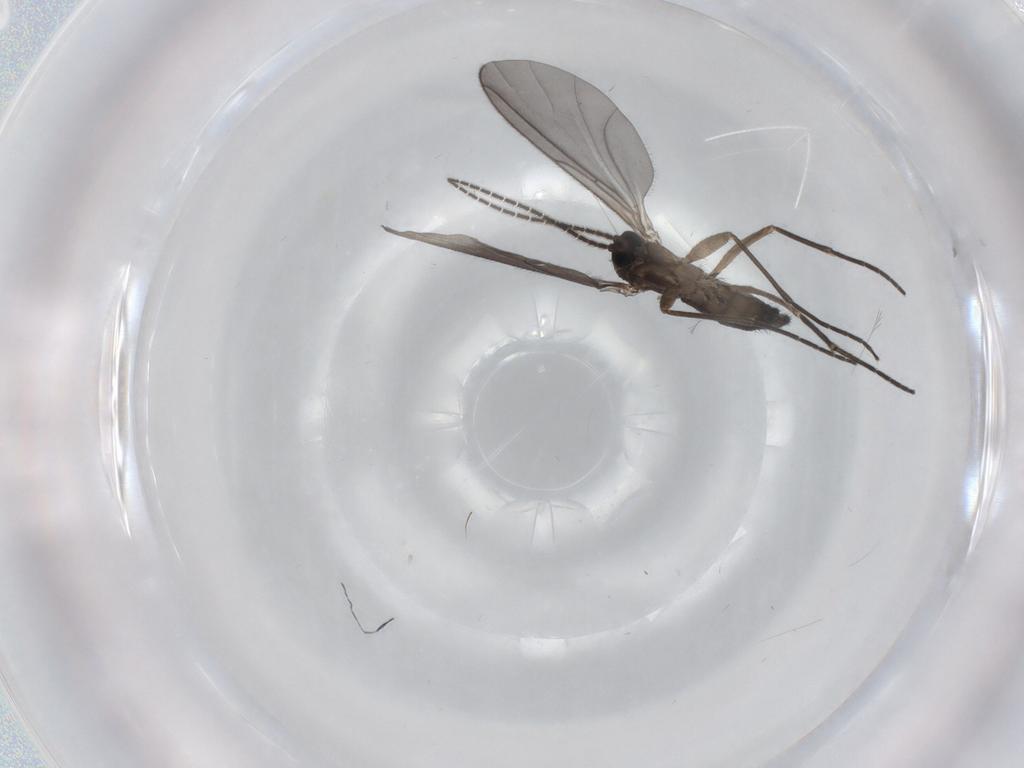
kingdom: Animalia
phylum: Arthropoda
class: Insecta
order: Diptera
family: Sciaridae
